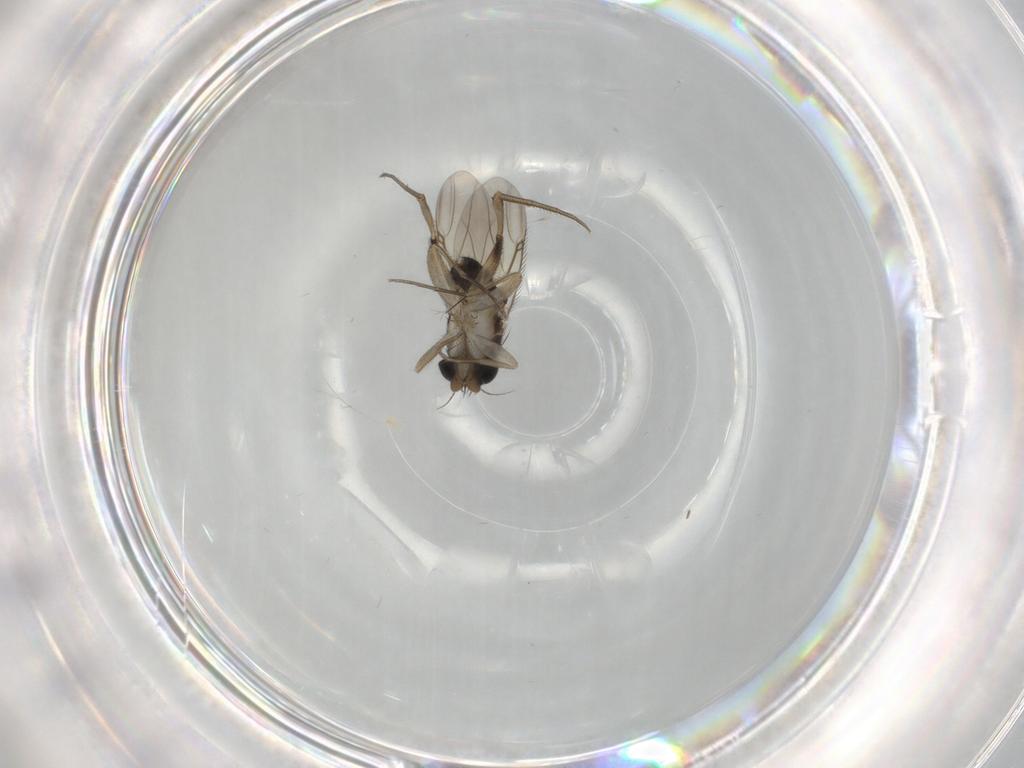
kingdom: Animalia
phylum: Arthropoda
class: Insecta
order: Diptera
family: Phoridae
